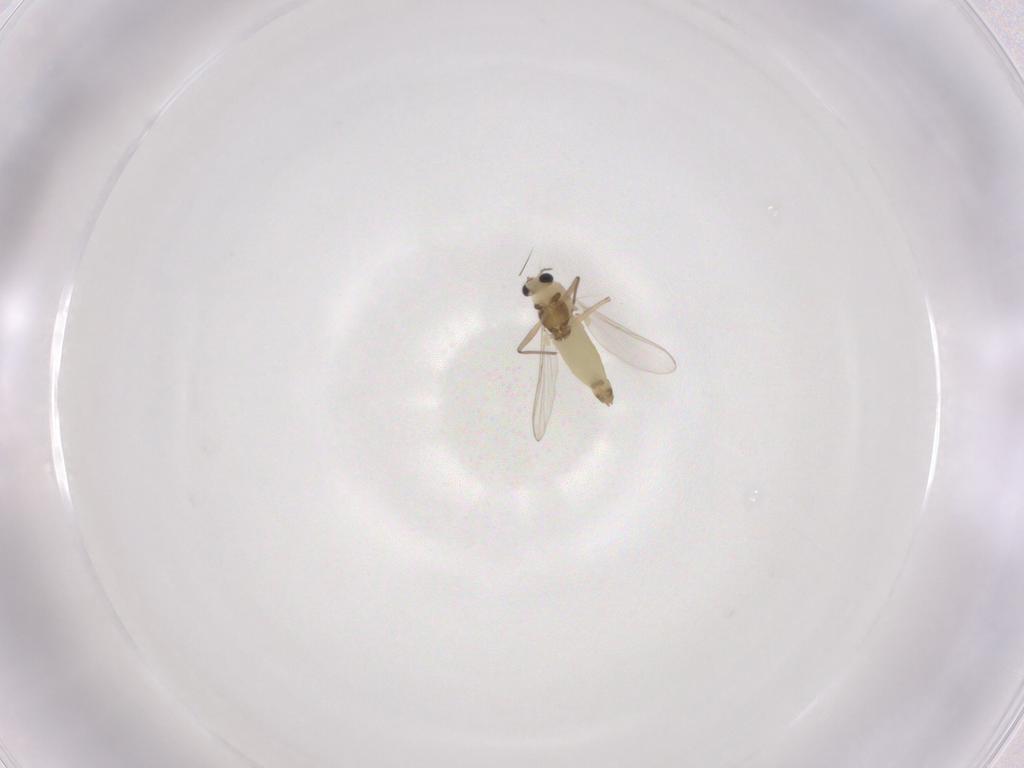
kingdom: Animalia
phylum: Arthropoda
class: Insecta
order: Diptera
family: Chironomidae
